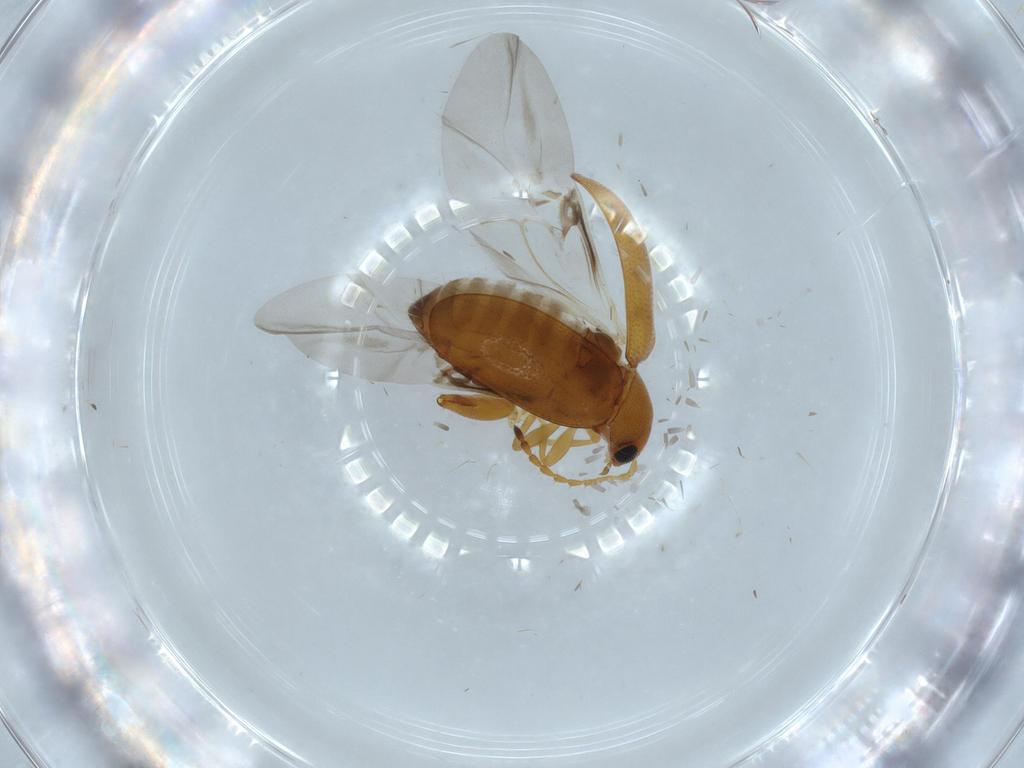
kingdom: Animalia
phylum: Arthropoda
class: Insecta
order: Coleoptera
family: Chrysomelidae
